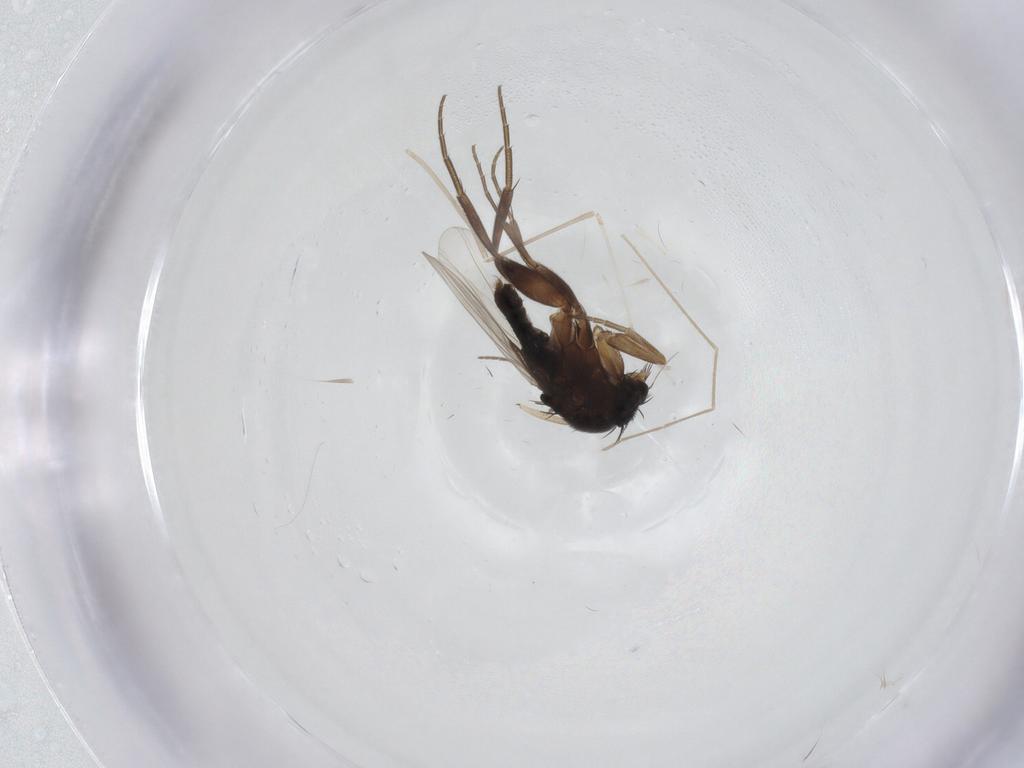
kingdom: Animalia
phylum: Arthropoda
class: Insecta
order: Diptera
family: Phoridae
